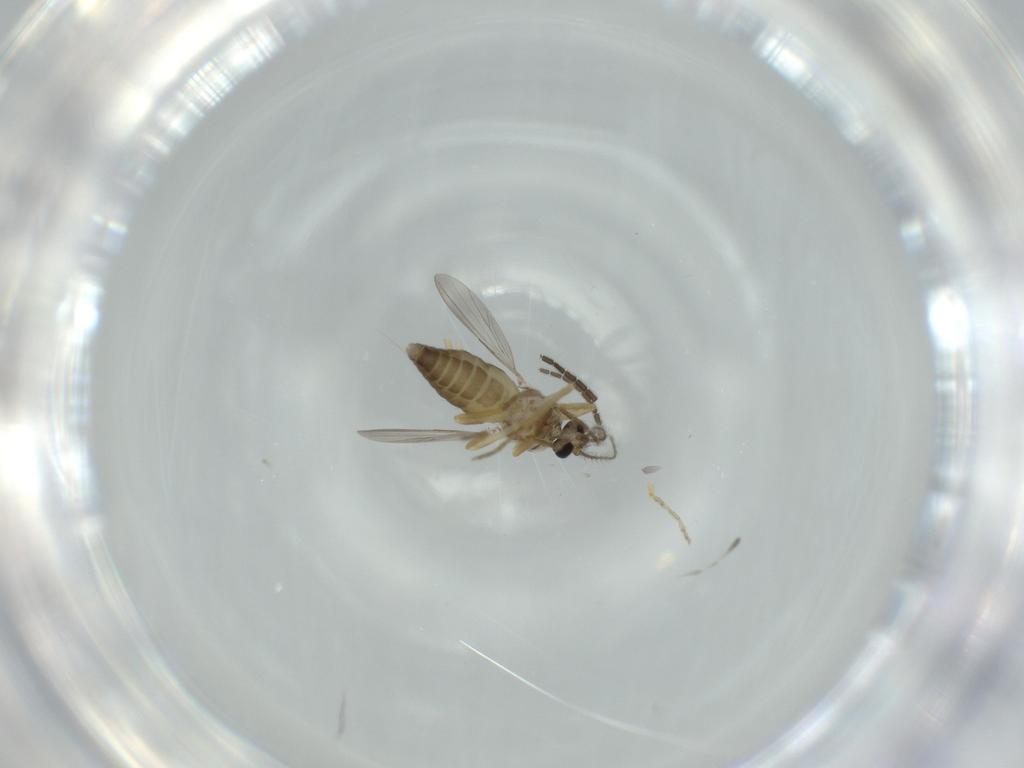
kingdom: Animalia
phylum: Arthropoda
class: Insecta
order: Diptera
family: Ceratopogonidae
